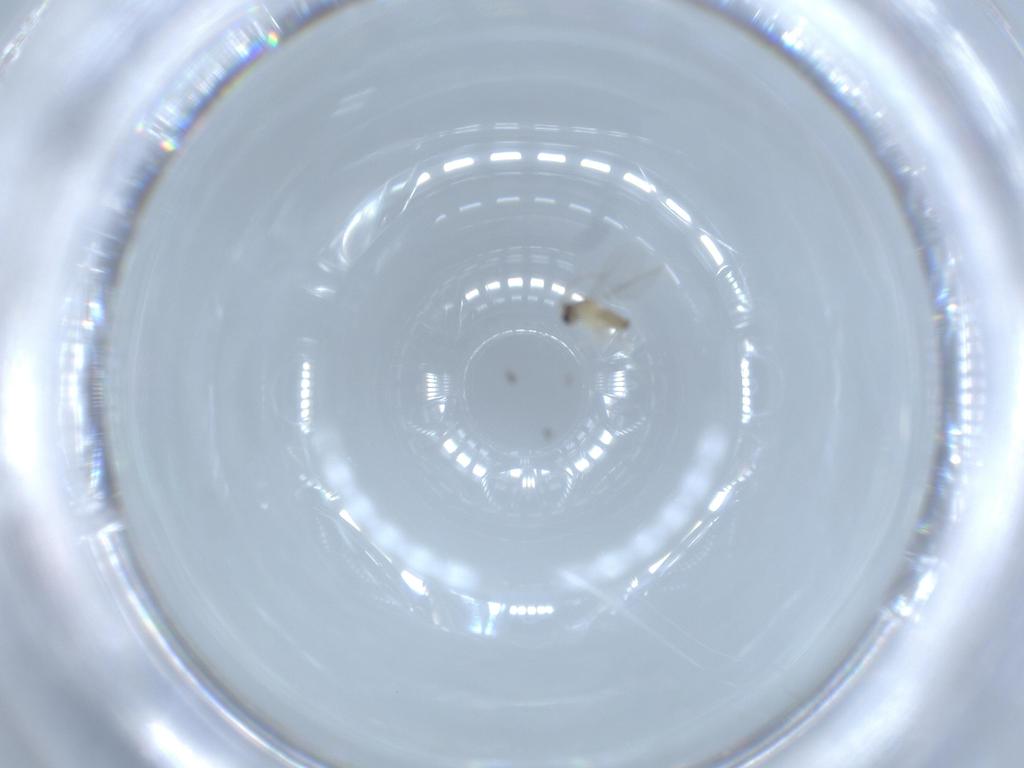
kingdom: Animalia
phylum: Arthropoda
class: Insecta
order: Diptera
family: Cecidomyiidae
